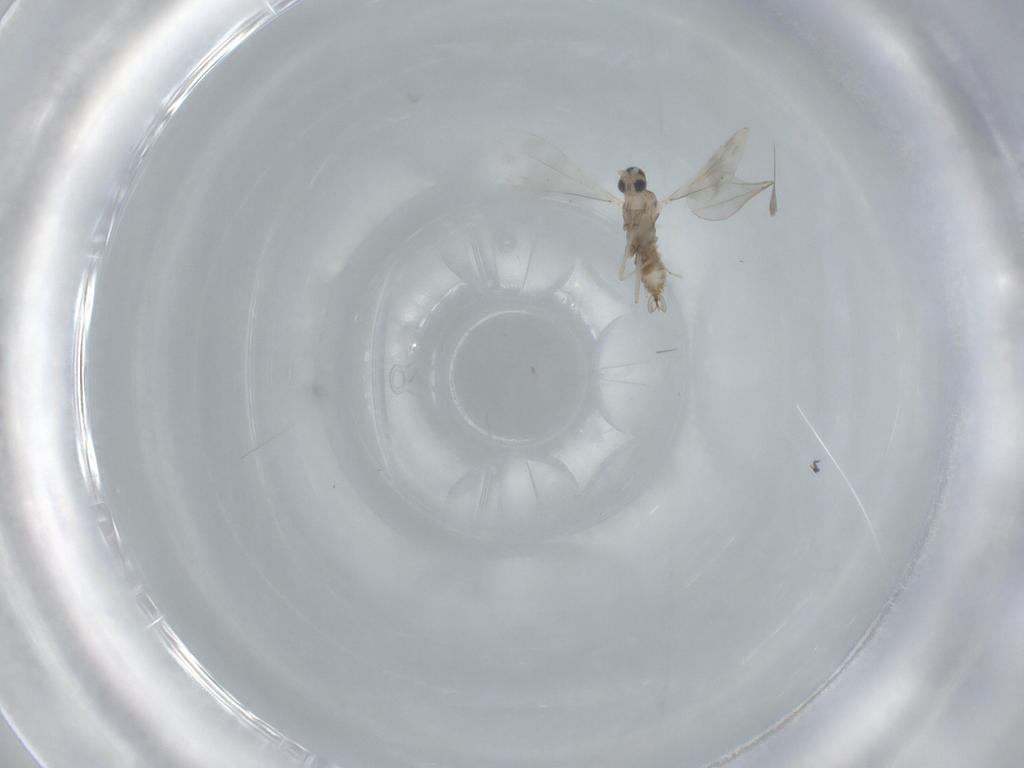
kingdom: Animalia
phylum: Arthropoda
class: Insecta
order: Diptera
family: Cecidomyiidae
